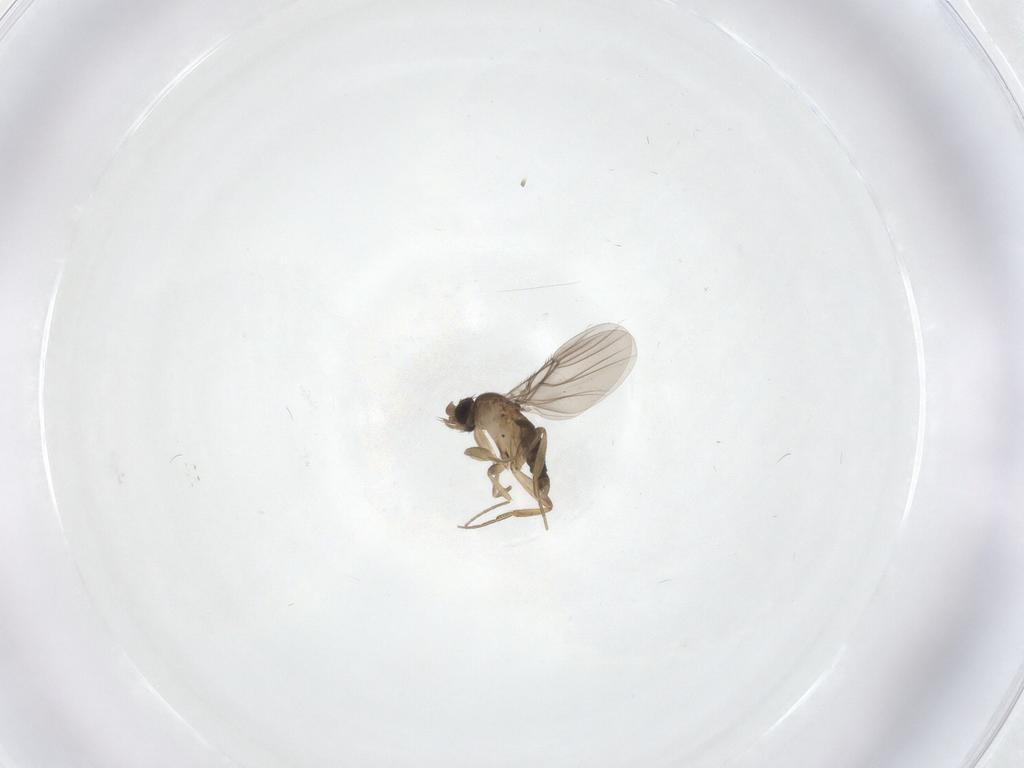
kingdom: Animalia
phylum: Arthropoda
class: Insecta
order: Diptera
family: Phoridae
